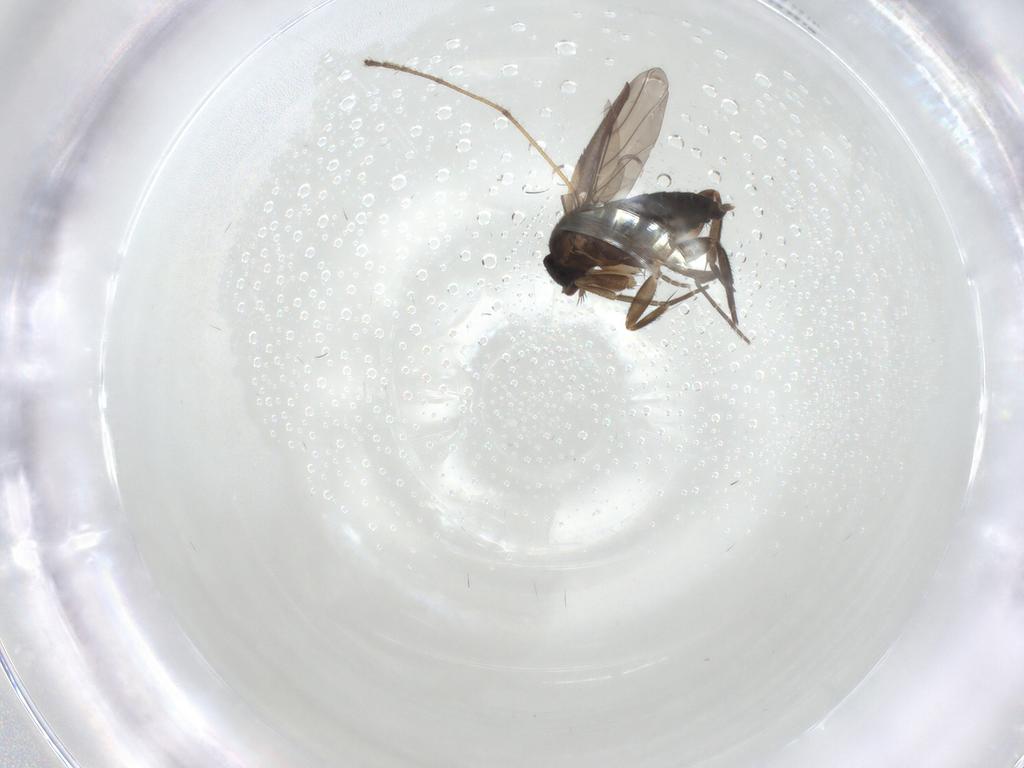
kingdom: Animalia
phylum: Arthropoda
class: Insecta
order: Diptera
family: Phoridae
